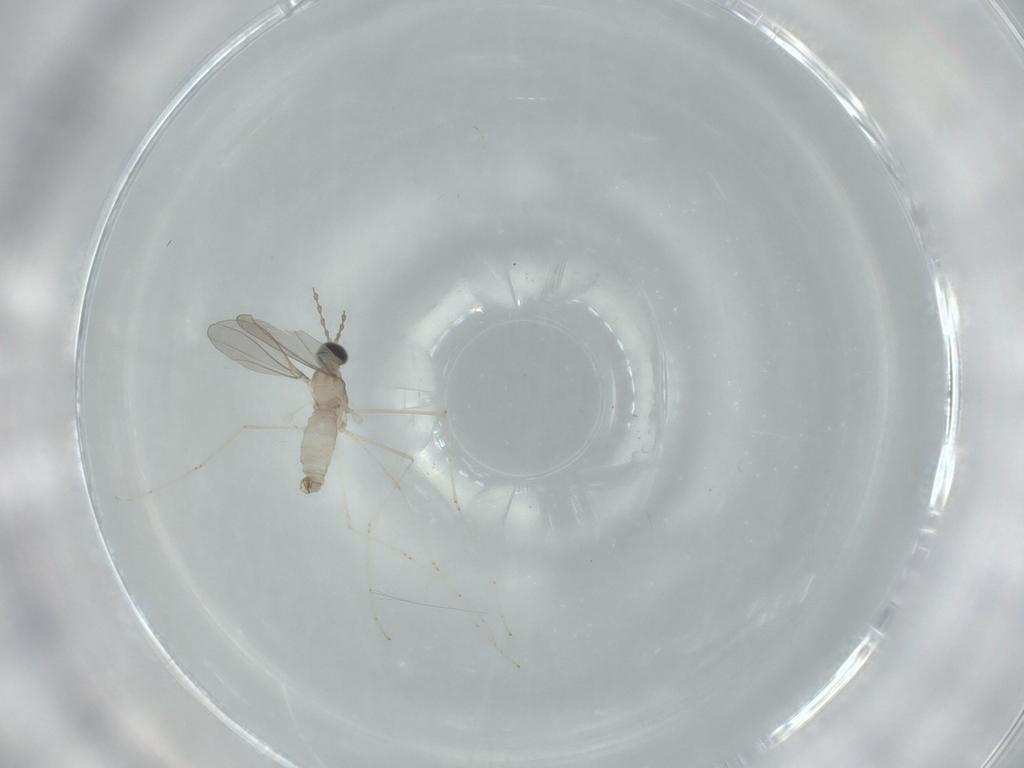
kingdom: Animalia
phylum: Arthropoda
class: Insecta
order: Diptera
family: Cecidomyiidae
